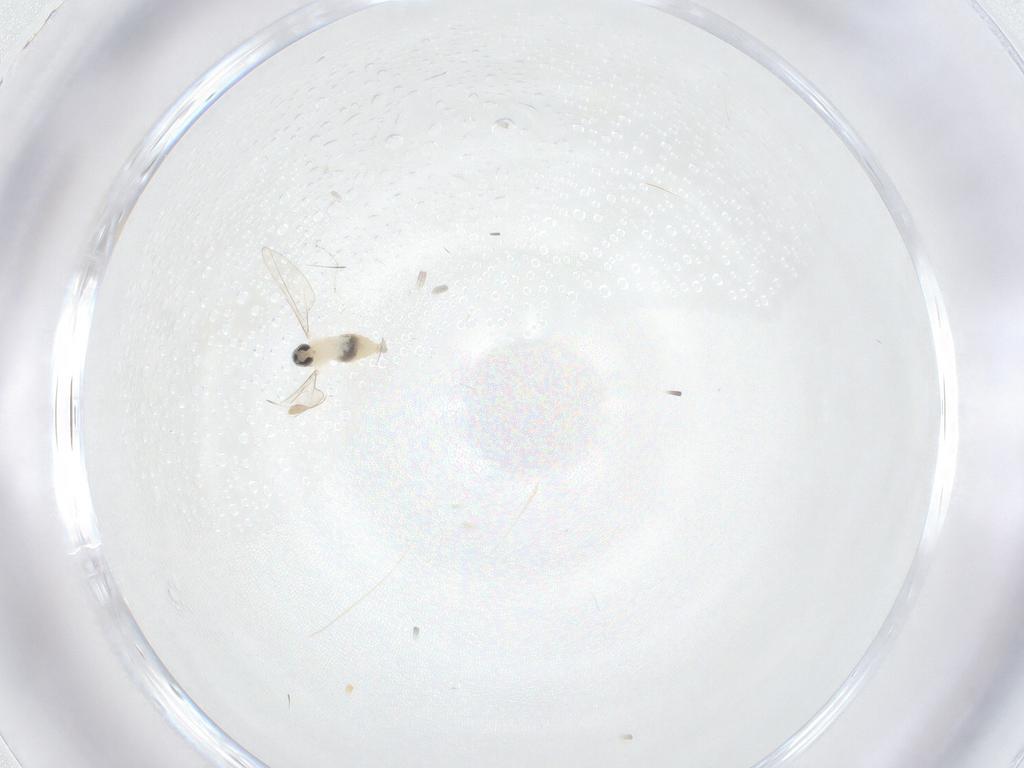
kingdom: Animalia
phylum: Arthropoda
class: Insecta
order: Diptera
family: Cecidomyiidae
